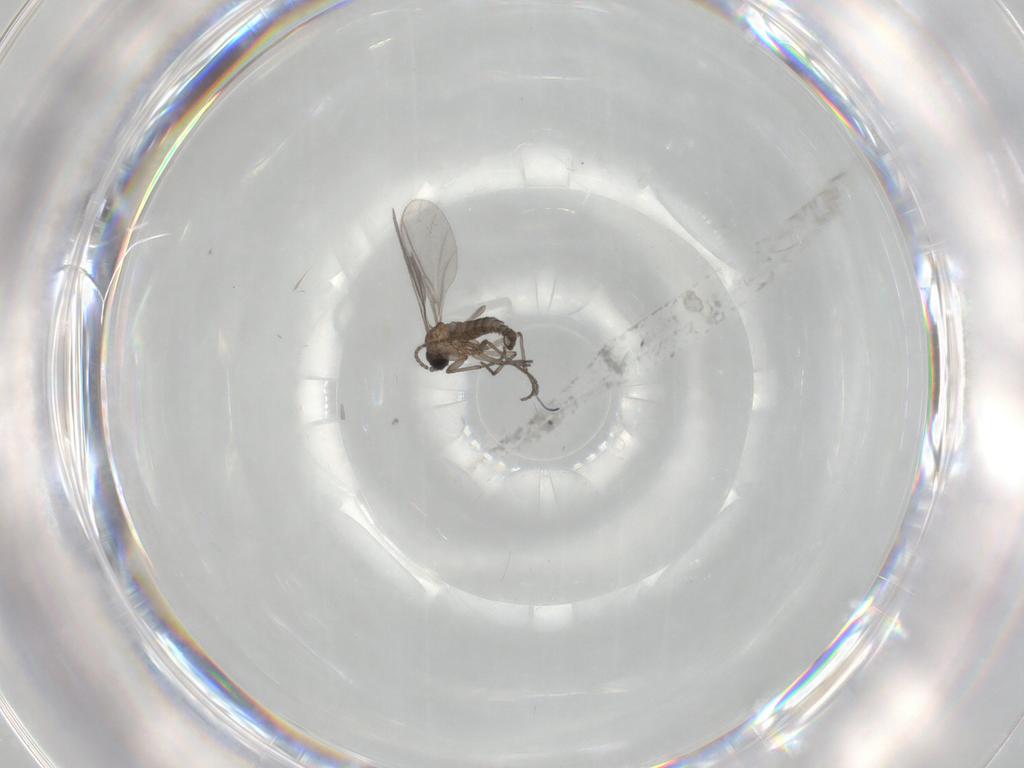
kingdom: Animalia
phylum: Arthropoda
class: Insecta
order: Diptera
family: Sciaridae
